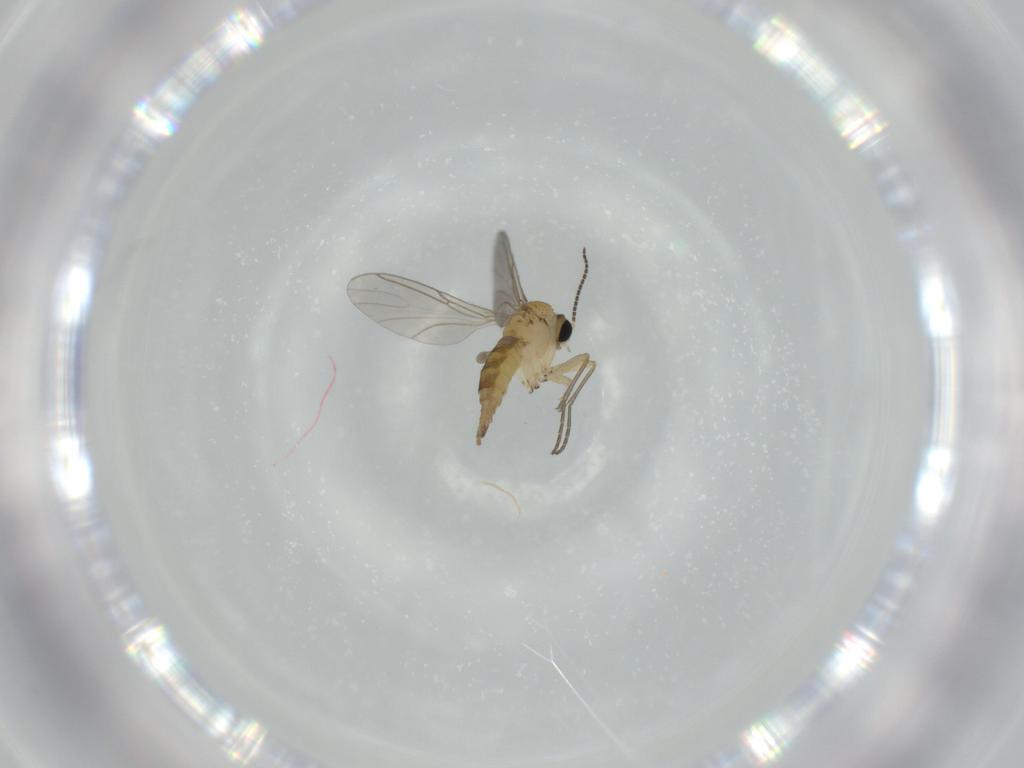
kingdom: Animalia
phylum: Arthropoda
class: Insecta
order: Diptera
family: Sciaridae
